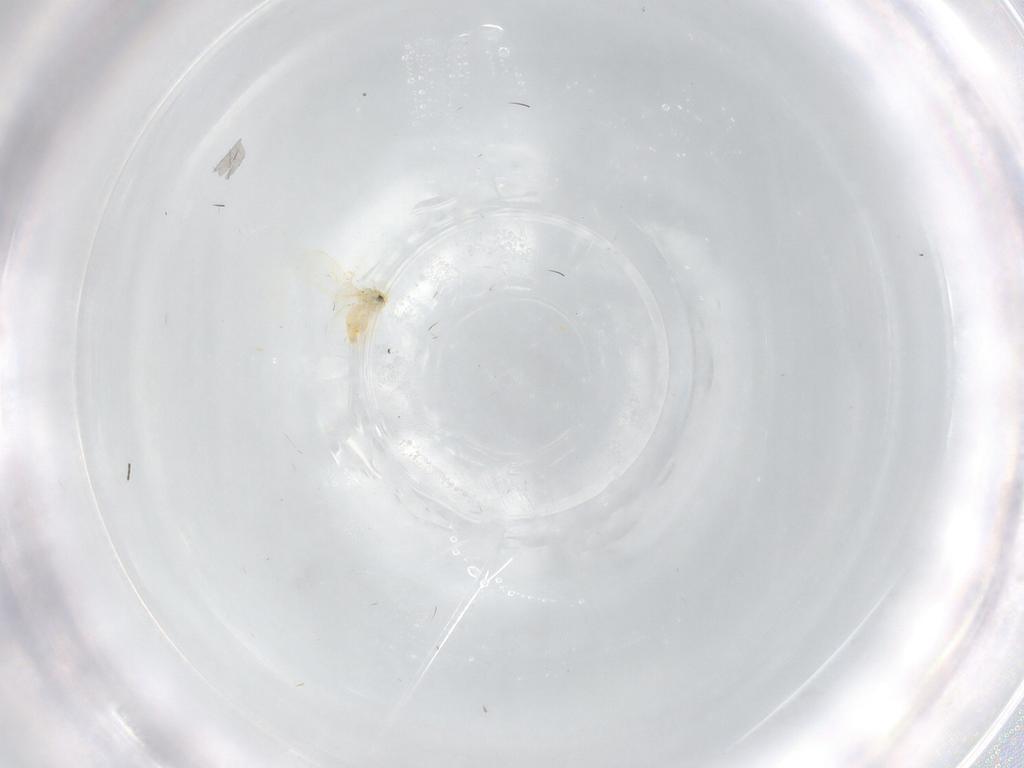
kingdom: Animalia
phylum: Arthropoda
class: Insecta
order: Hemiptera
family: Aleyrodidae
